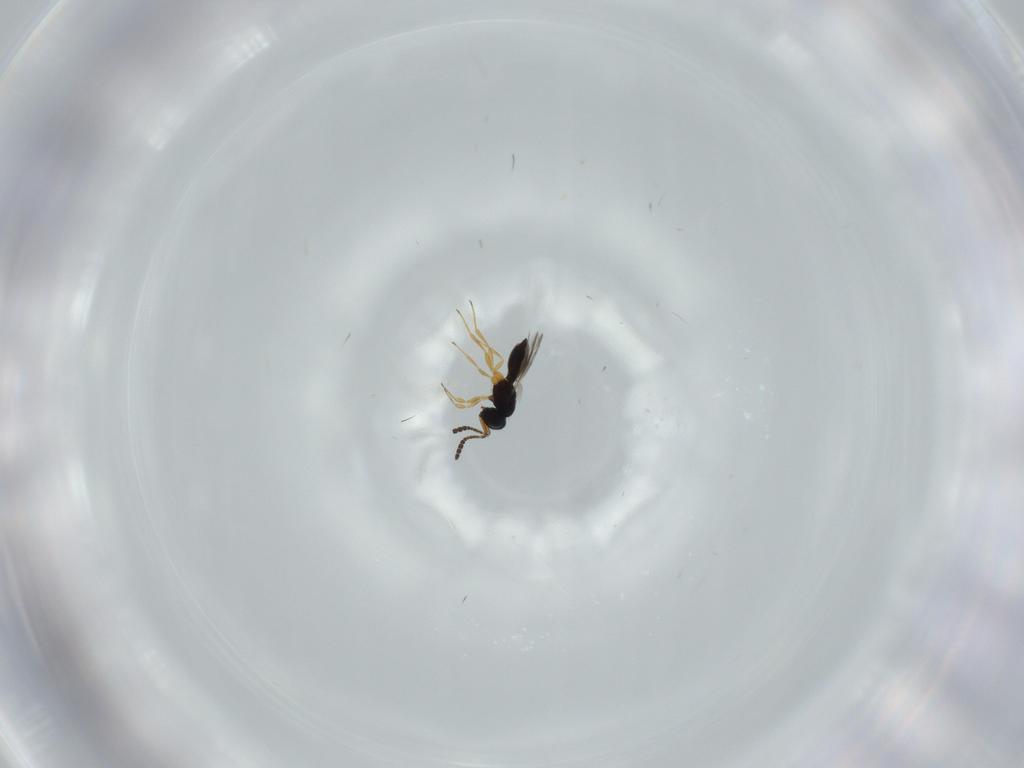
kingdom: Animalia
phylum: Arthropoda
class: Insecta
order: Hymenoptera
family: Scelionidae
